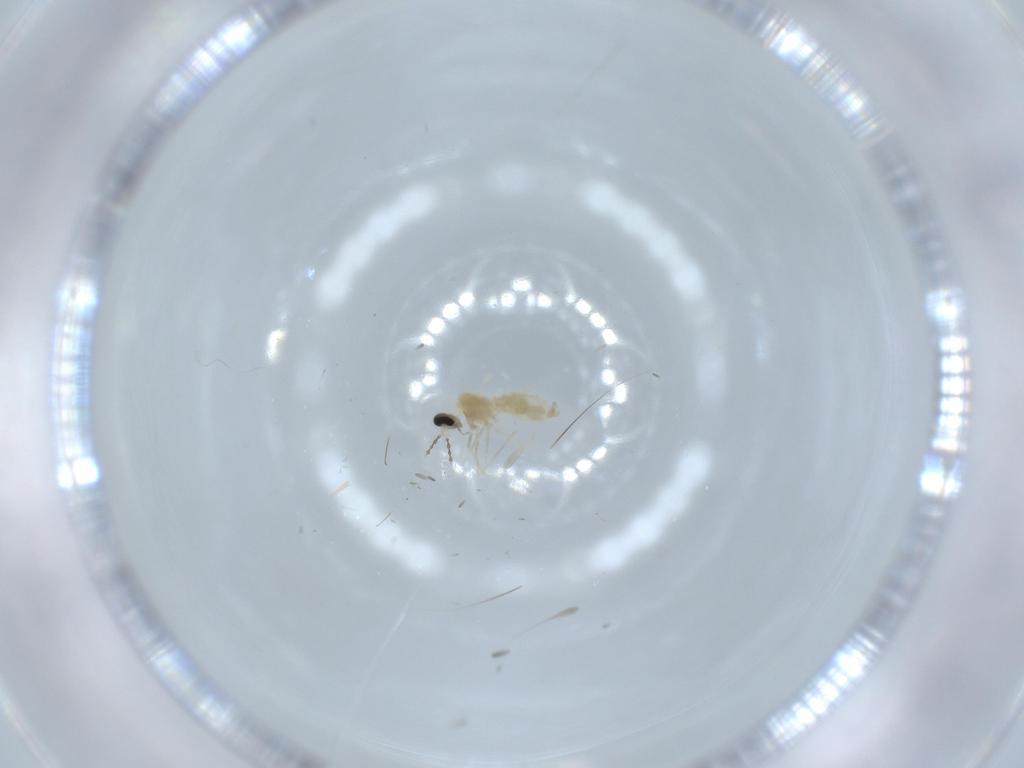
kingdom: Animalia
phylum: Arthropoda
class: Insecta
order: Diptera
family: Cecidomyiidae
